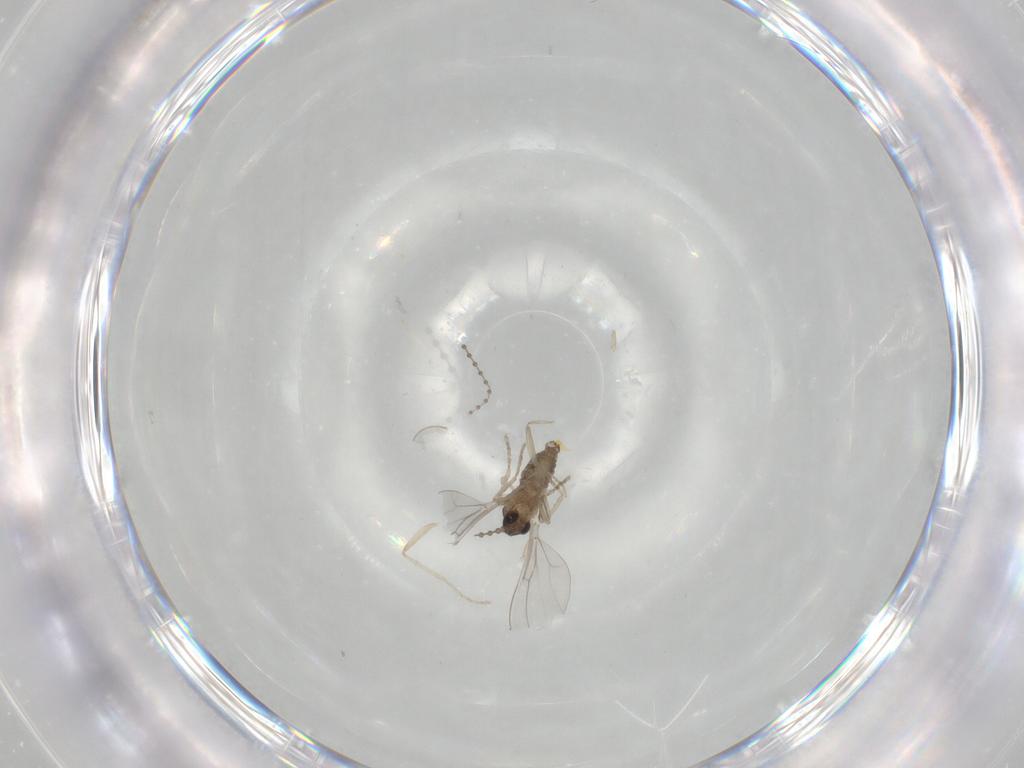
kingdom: Animalia
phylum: Arthropoda
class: Insecta
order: Diptera
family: Cecidomyiidae
